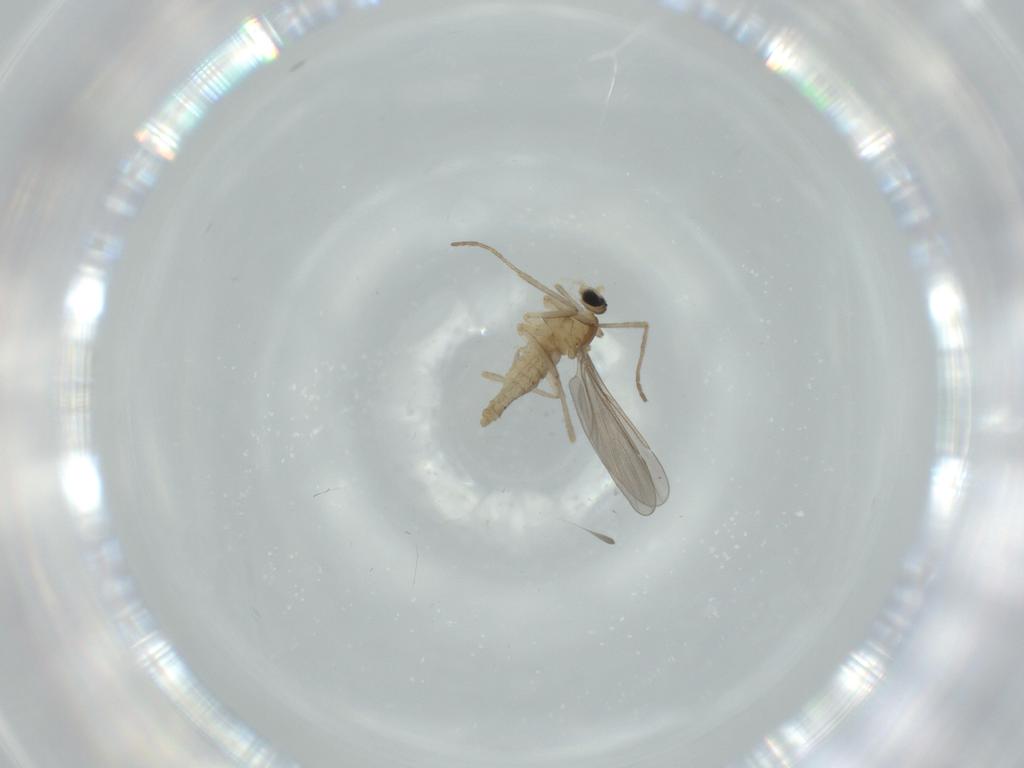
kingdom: Animalia
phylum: Arthropoda
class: Insecta
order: Diptera
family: Cecidomyiidae
